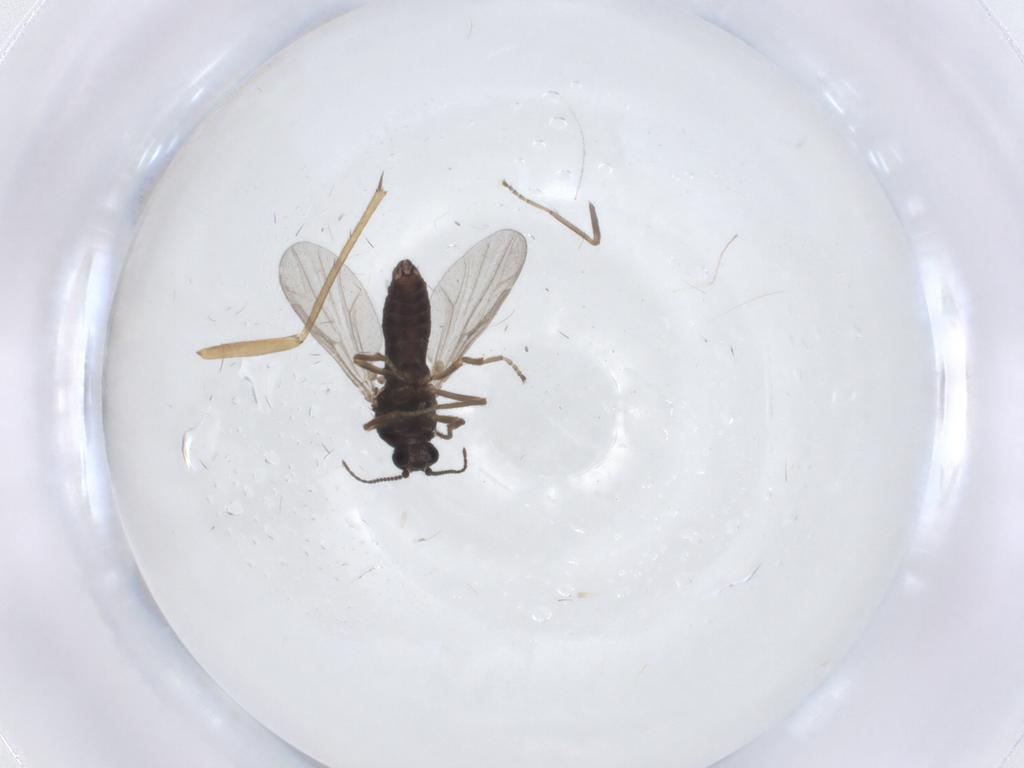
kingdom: Animalia
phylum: Arthropoda
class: Insecta
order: Diptera
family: Ceratopogonidae
